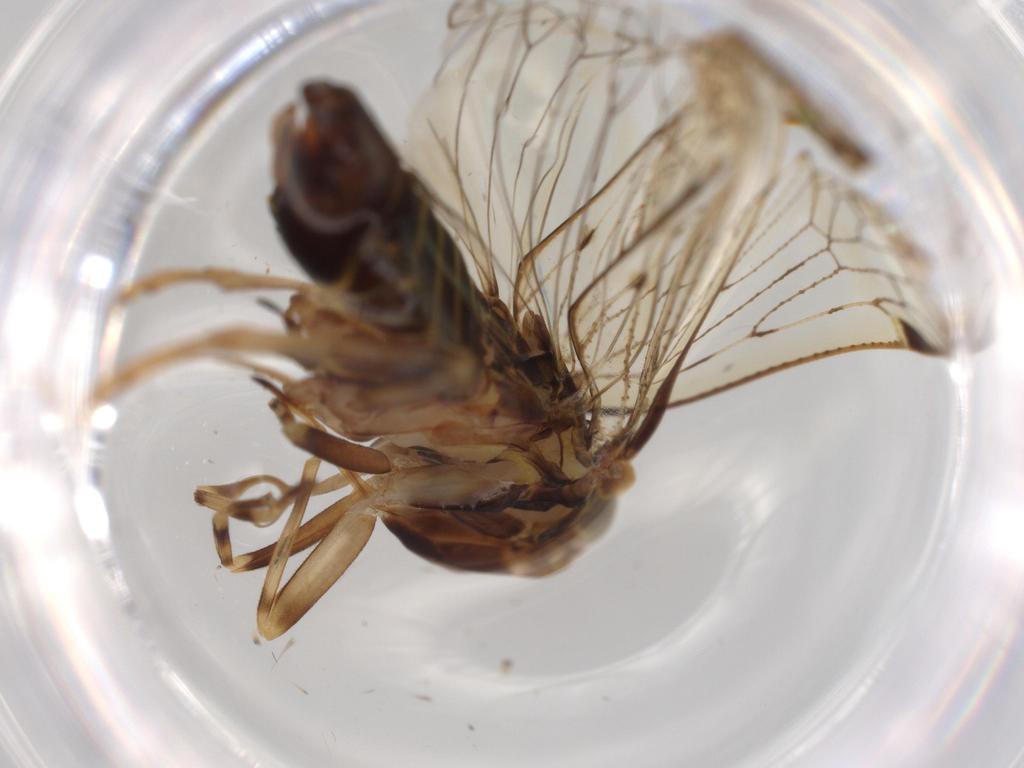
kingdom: Animalia
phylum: Arthropoda
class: Insecta
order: Hemiptera
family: Cixiidae
